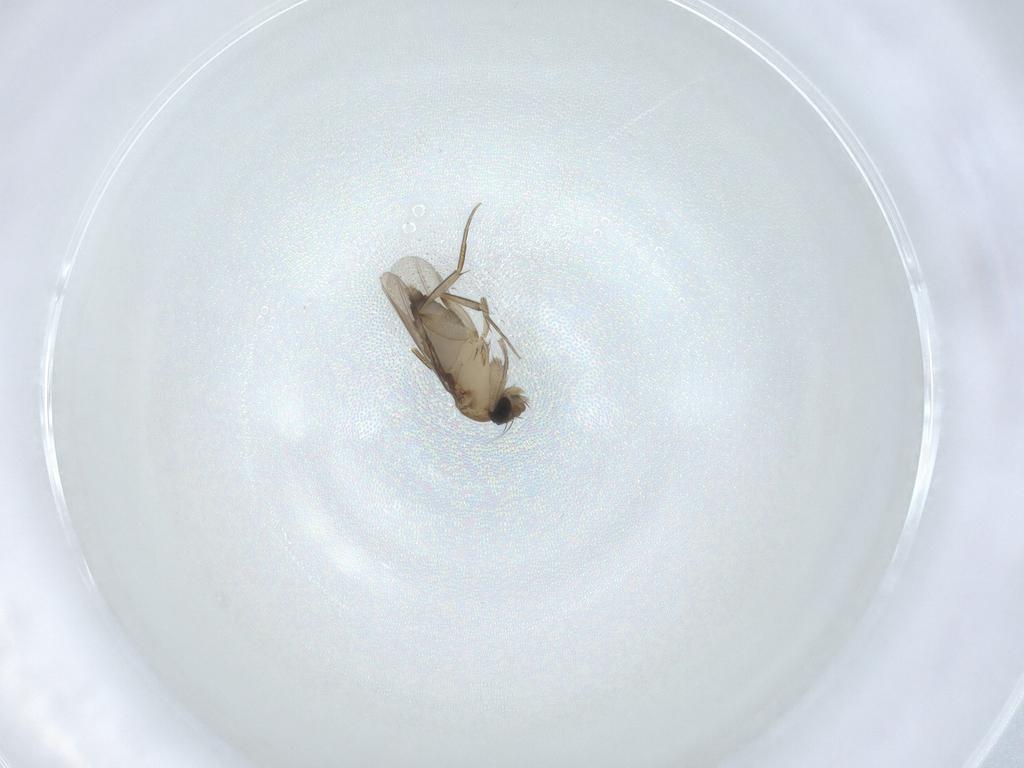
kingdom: Animalia
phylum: Arthropoda
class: Insecta
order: Diptera
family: Phoridae
